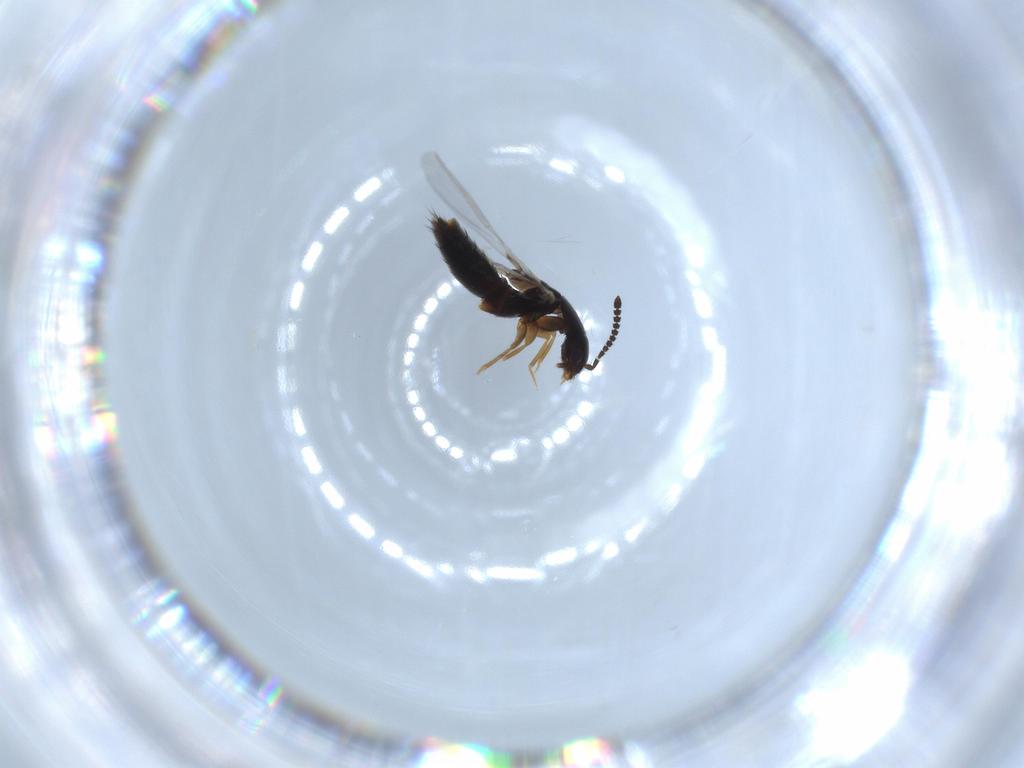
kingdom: Animalia
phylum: Arthropoda
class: Insecta
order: Coleoptera
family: Staphylinidae
